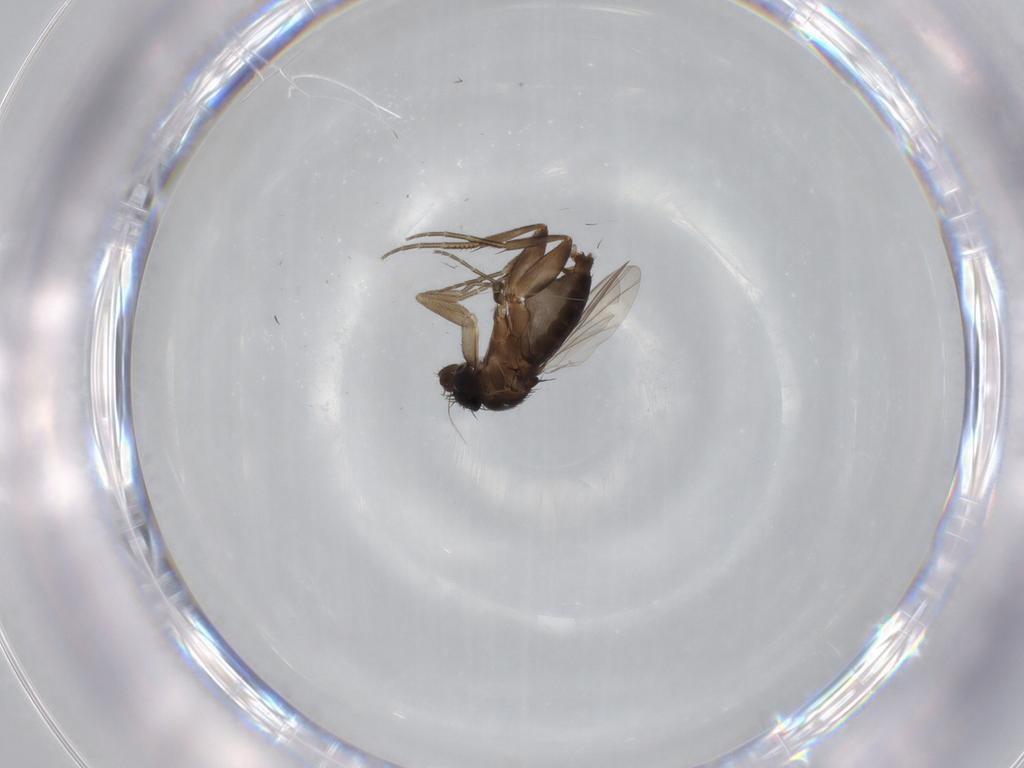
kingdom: Animalia
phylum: Arthropoda
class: Insecta
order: Diptera
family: Phoridae
